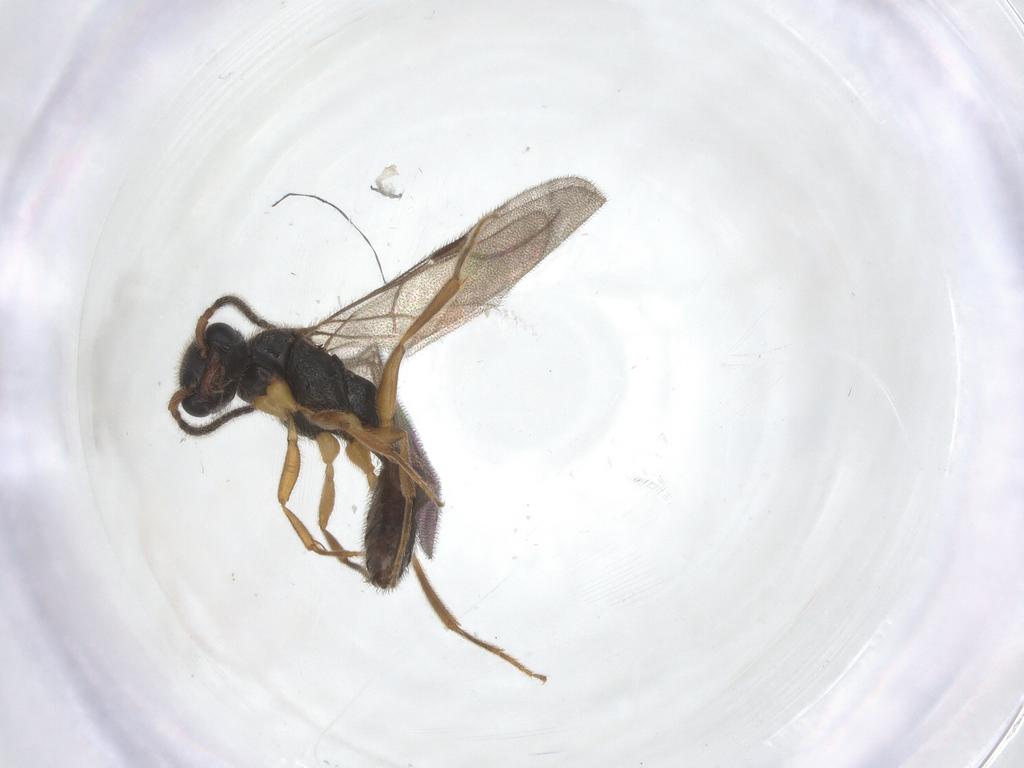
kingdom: Animalia
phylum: Arthropoda
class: Insecta
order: Hymenoptera
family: Bethylidae
